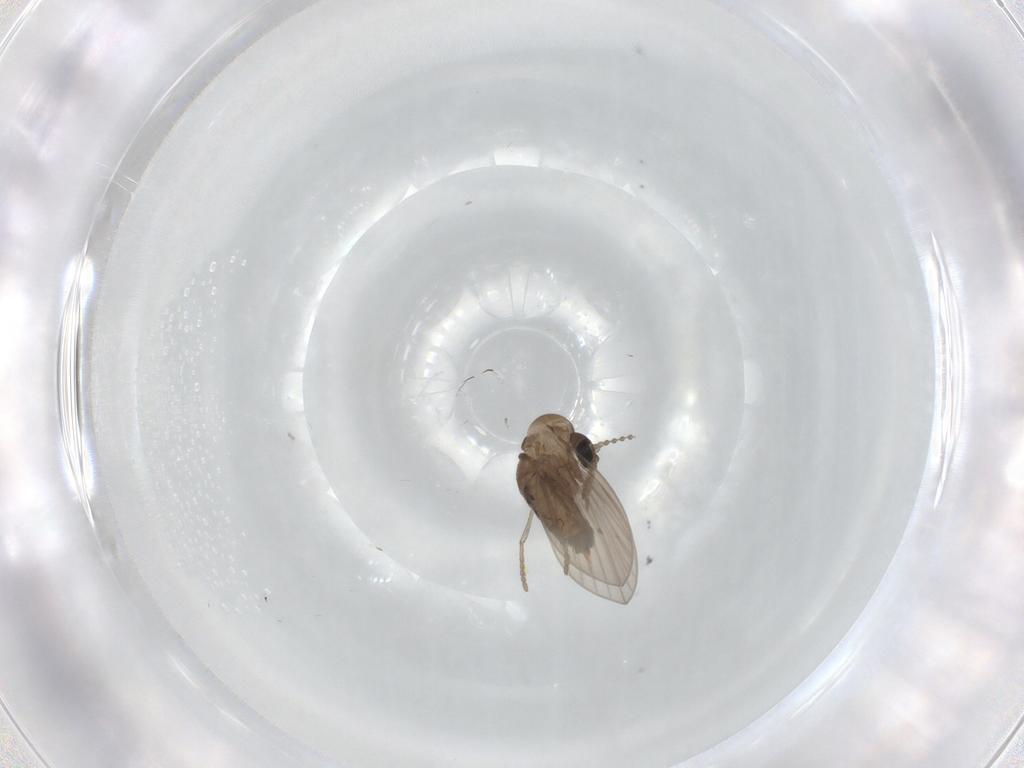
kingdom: Animalia
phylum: Arthropoda
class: Insecta
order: Diptera
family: Psychodidae
